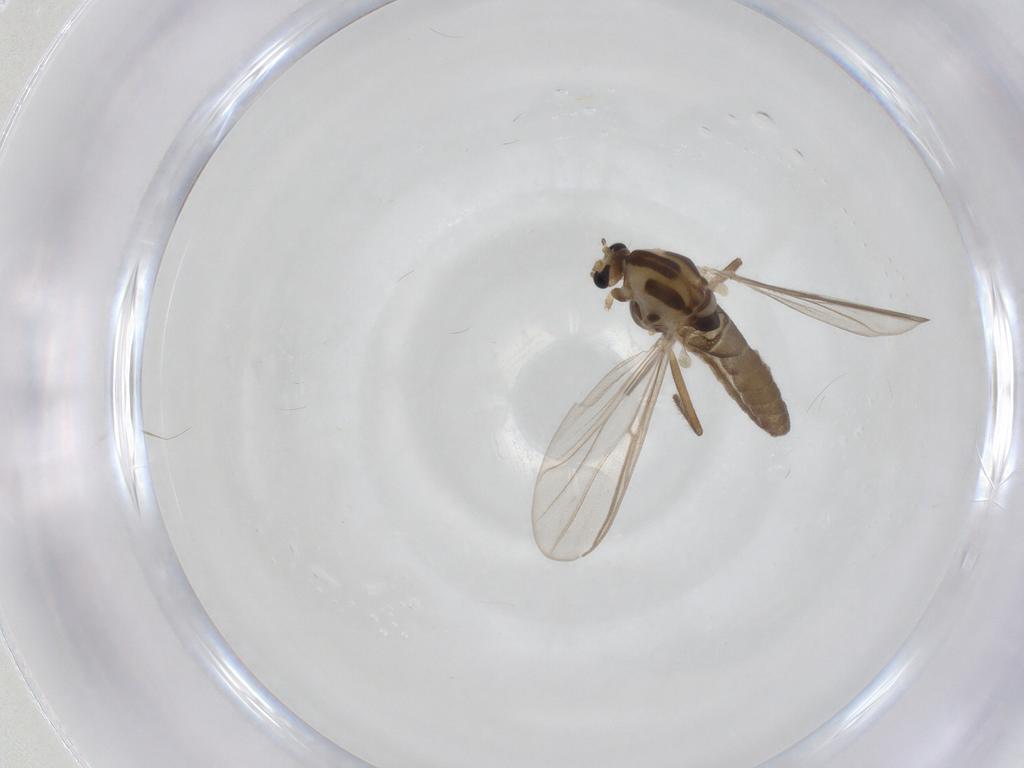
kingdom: Animalia
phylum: Arthropoda
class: Insecta
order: Diptera
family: Chironomidae
